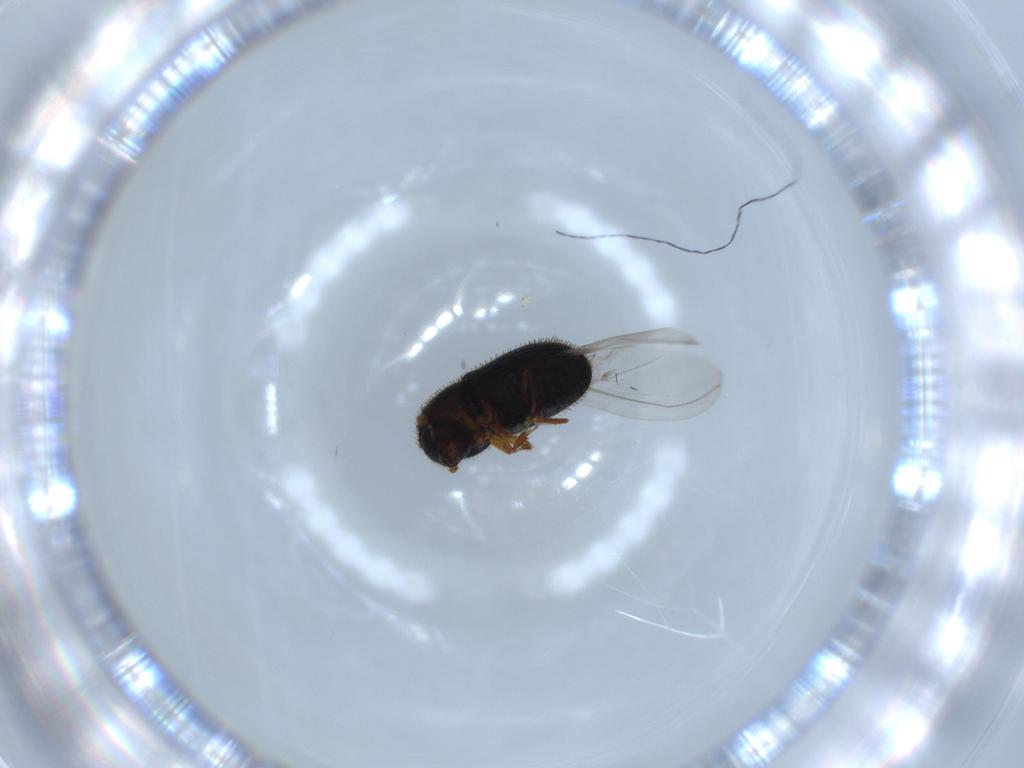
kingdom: Animalia
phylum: Arthropoda
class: Insecta
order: Coleoptera
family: Curculionidae
